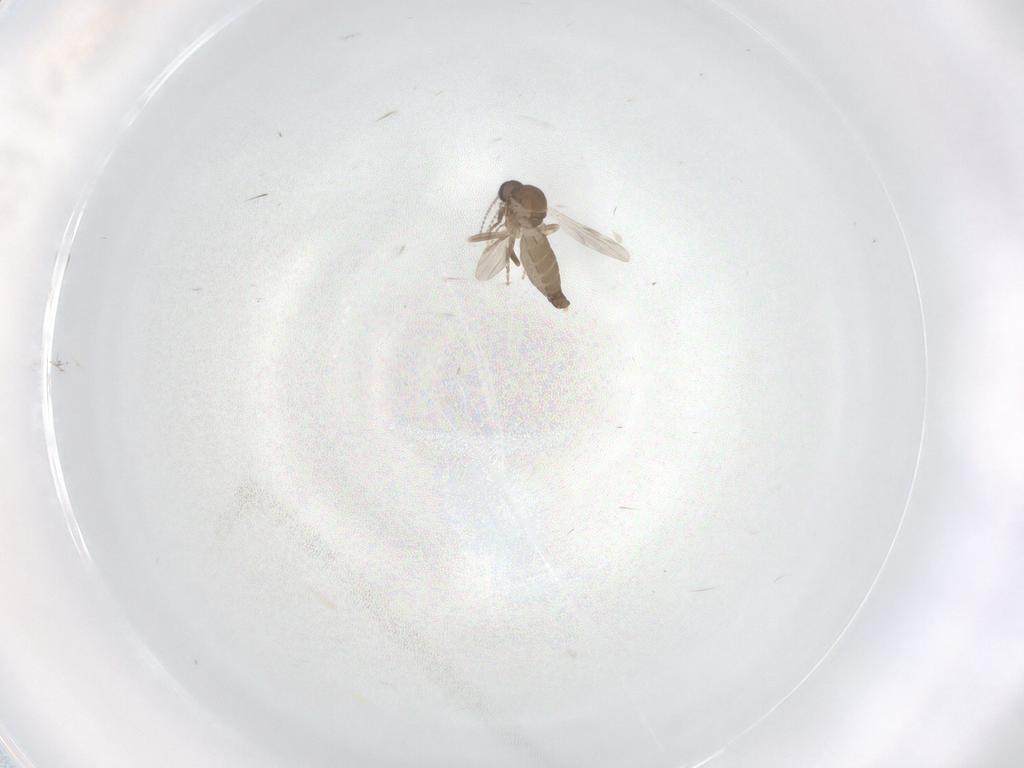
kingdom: Animalia
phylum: Arthropoda
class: Insecta
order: Diptera
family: Ceratopogonidae
